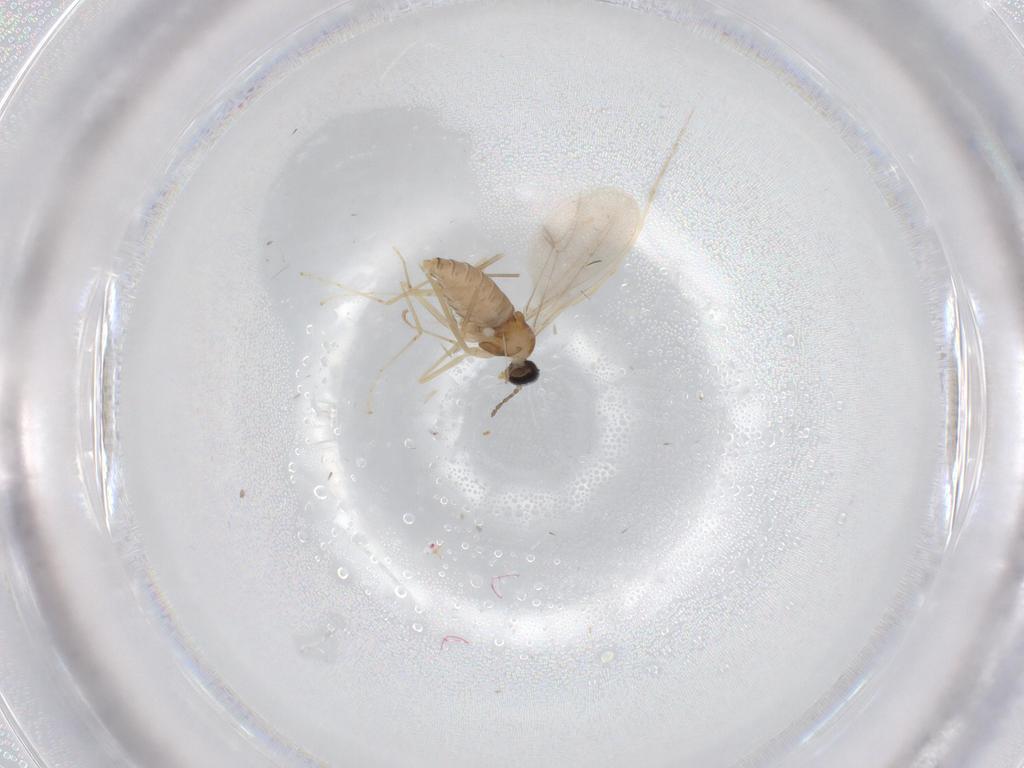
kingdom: Animalia
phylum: Arthropoda
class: Insecta
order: Diptera
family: Cecidomyiidae
